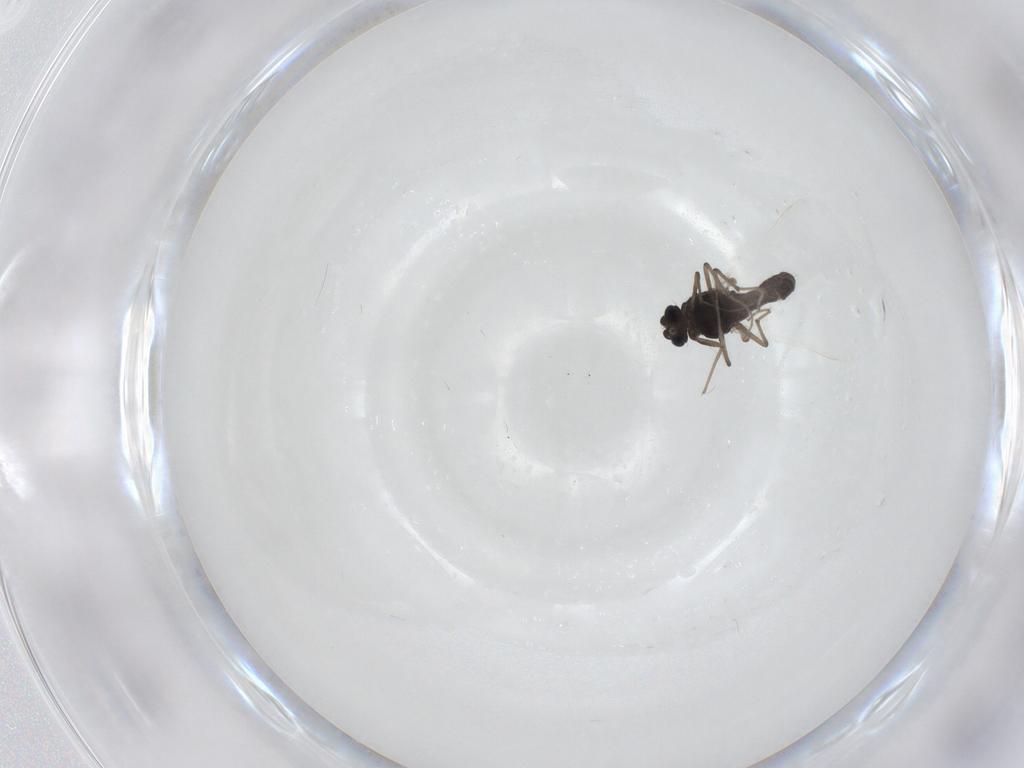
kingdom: Animalia
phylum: Arthropoda
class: Insecta
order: Diptera
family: Chironomidae
